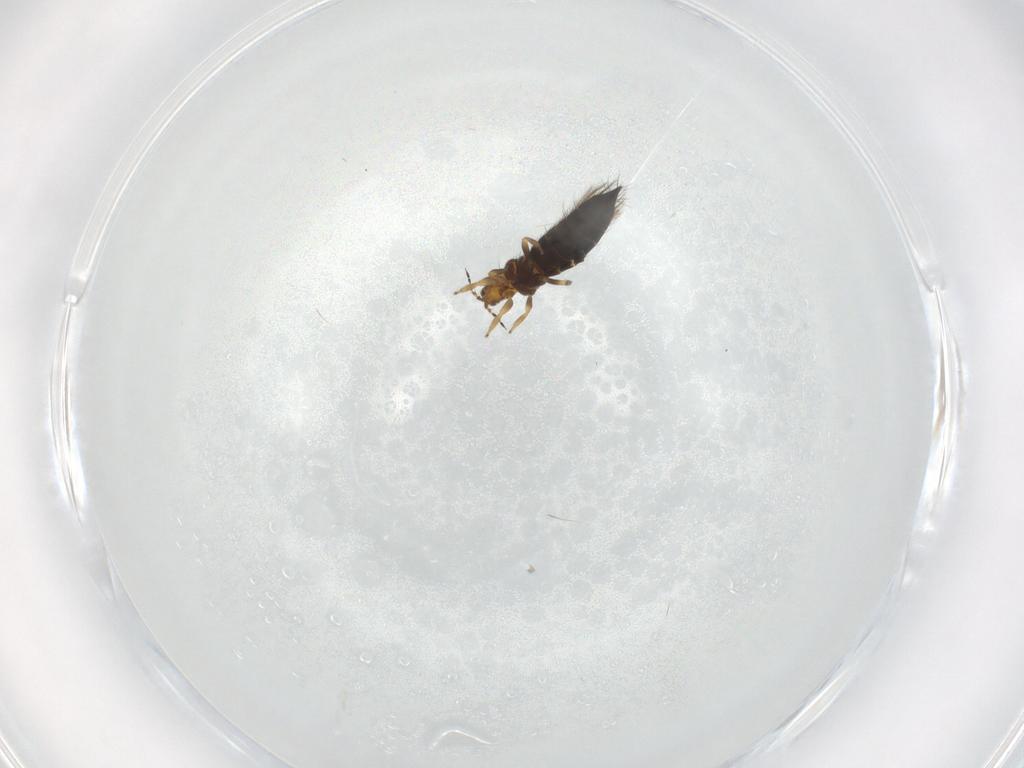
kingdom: Animalia
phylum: Arthropoda
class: Insecta
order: Thysanoptera
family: Thripidae
